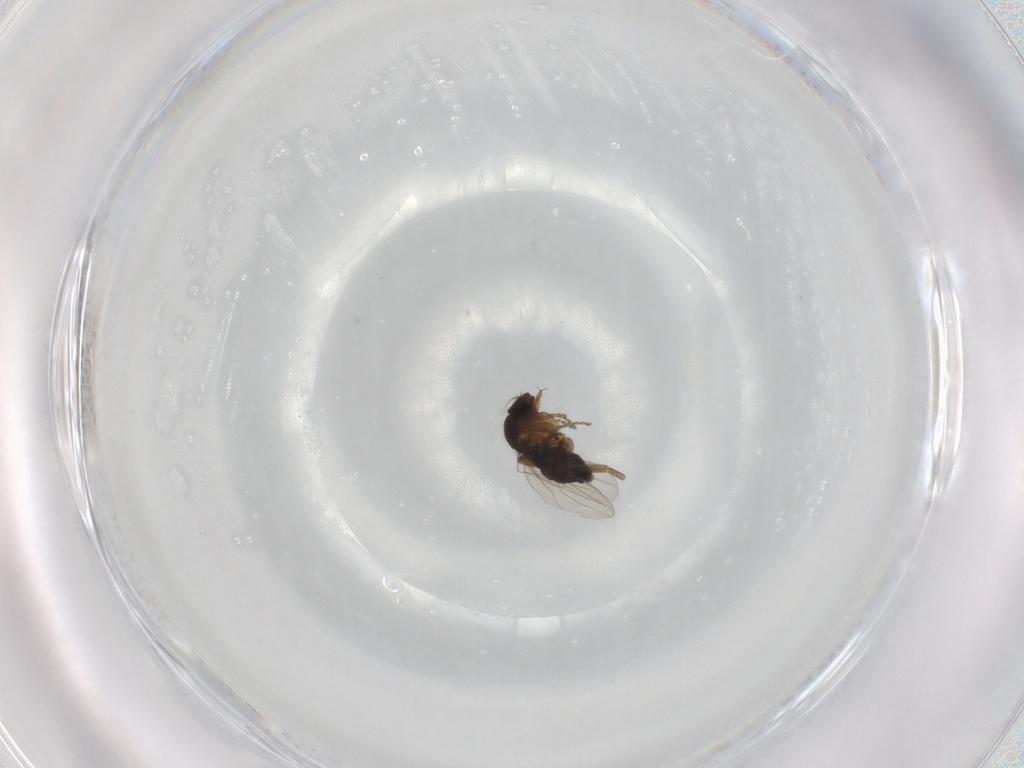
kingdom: Animalia
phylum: Arthropoda
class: Insecta
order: Diptera
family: Phoridae
